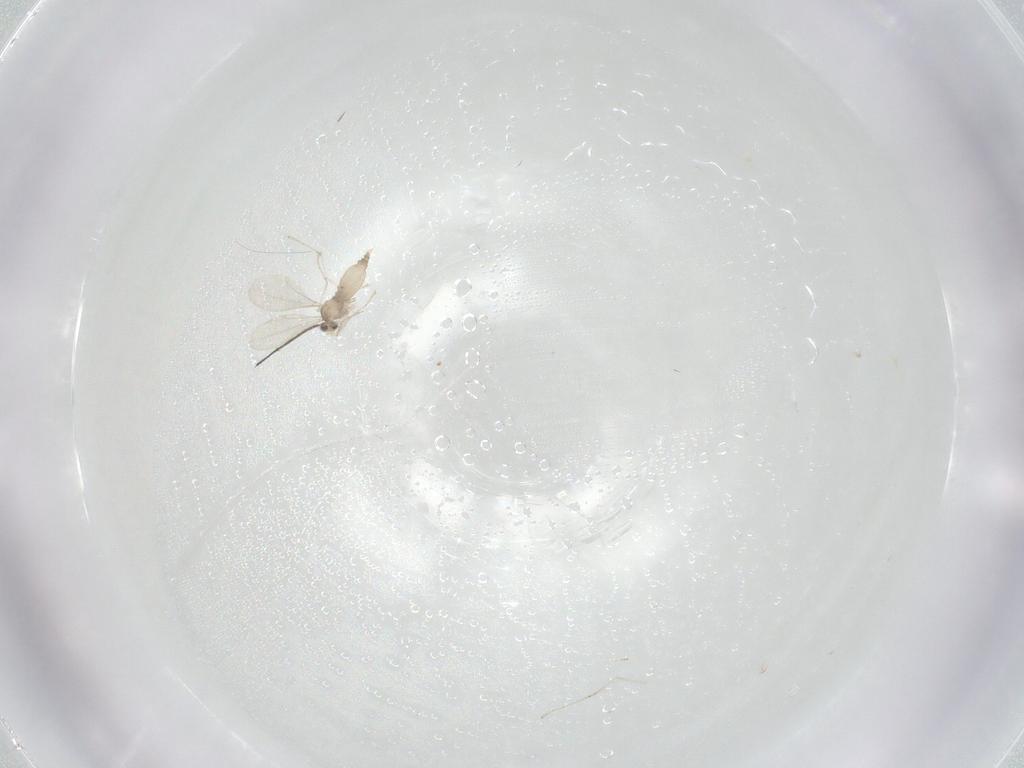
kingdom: Animalia
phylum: Arthropoda
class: Insecta
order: Diptera
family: Cecidomyiidae
